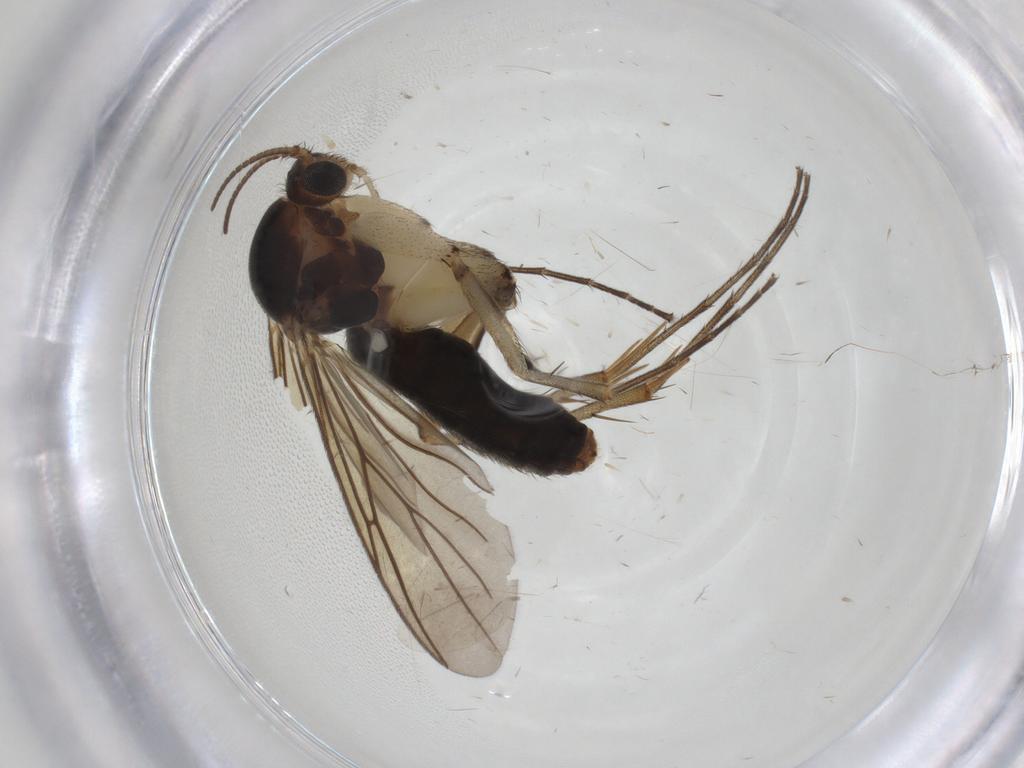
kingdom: Animalia
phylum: Arthropoda
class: Insecta
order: Diptera
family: Mycetophilidae
